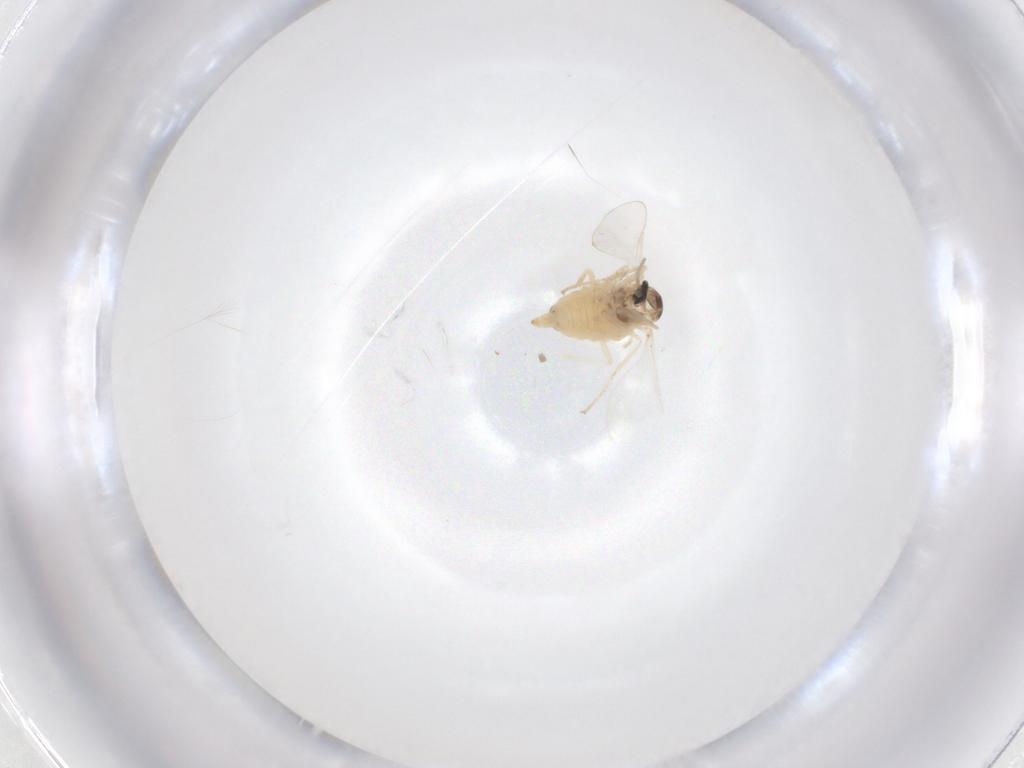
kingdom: Animalia
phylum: Arthropoda
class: Insecta
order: Diptera
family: Cecidomyiidae
